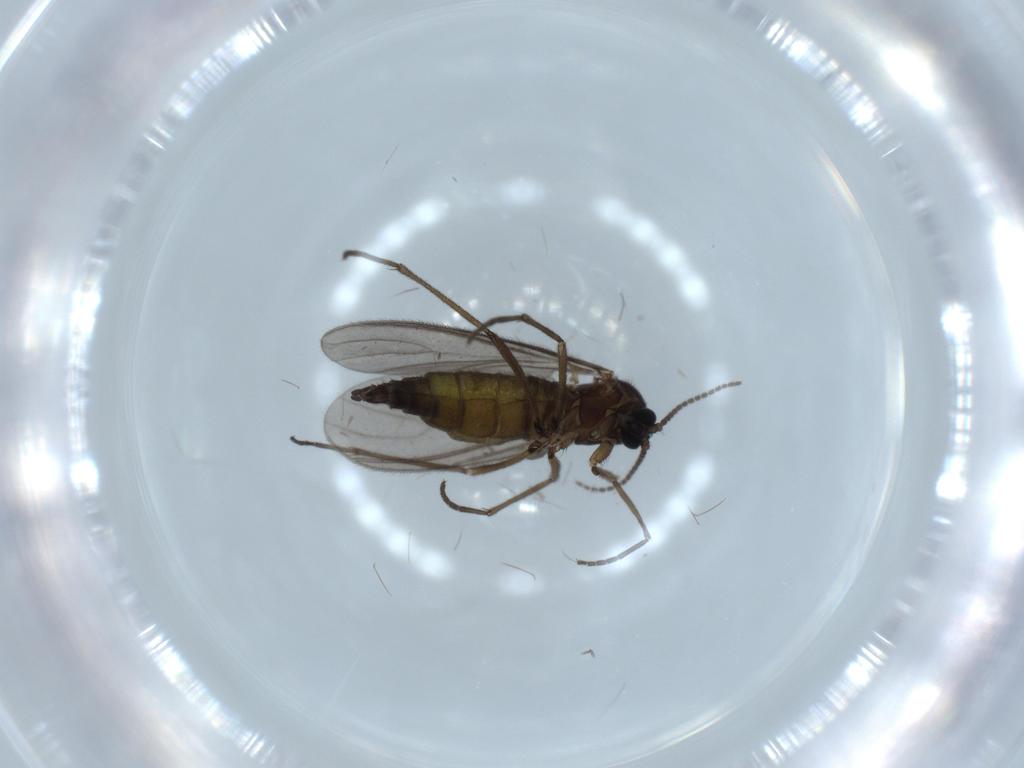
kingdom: Animalia
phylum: Arthropoda
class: Insecta
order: Diptera
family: Sciaridae
